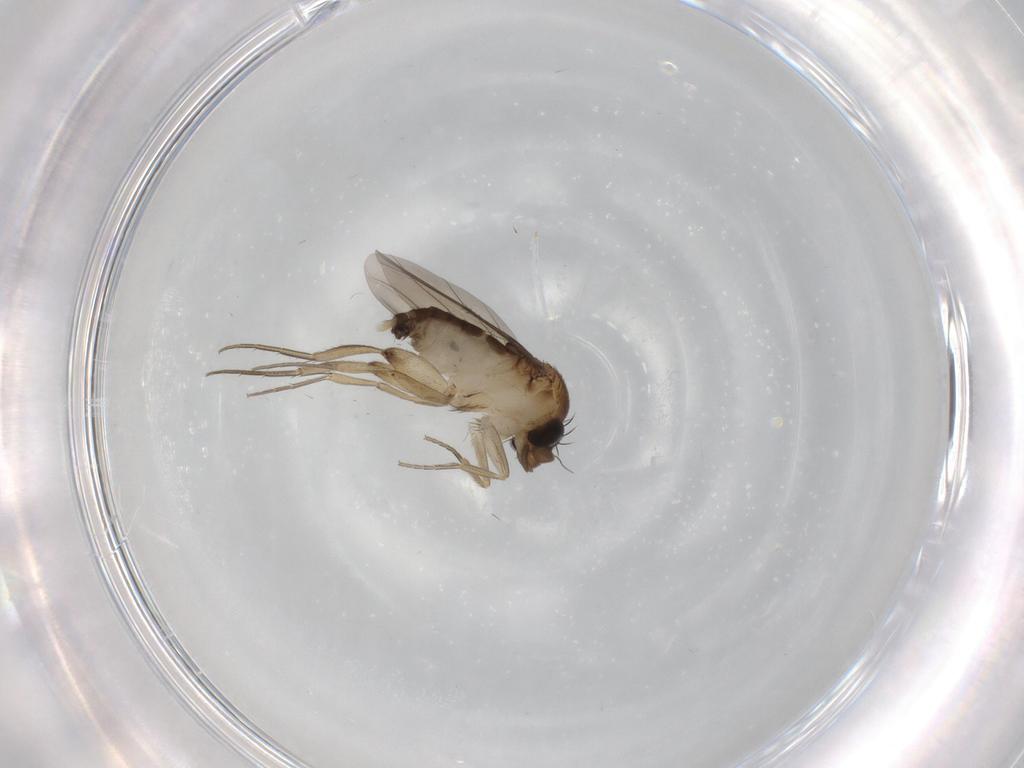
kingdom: Animalia
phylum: Arthropoda
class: Insecta
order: Diptera
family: Phoridae
